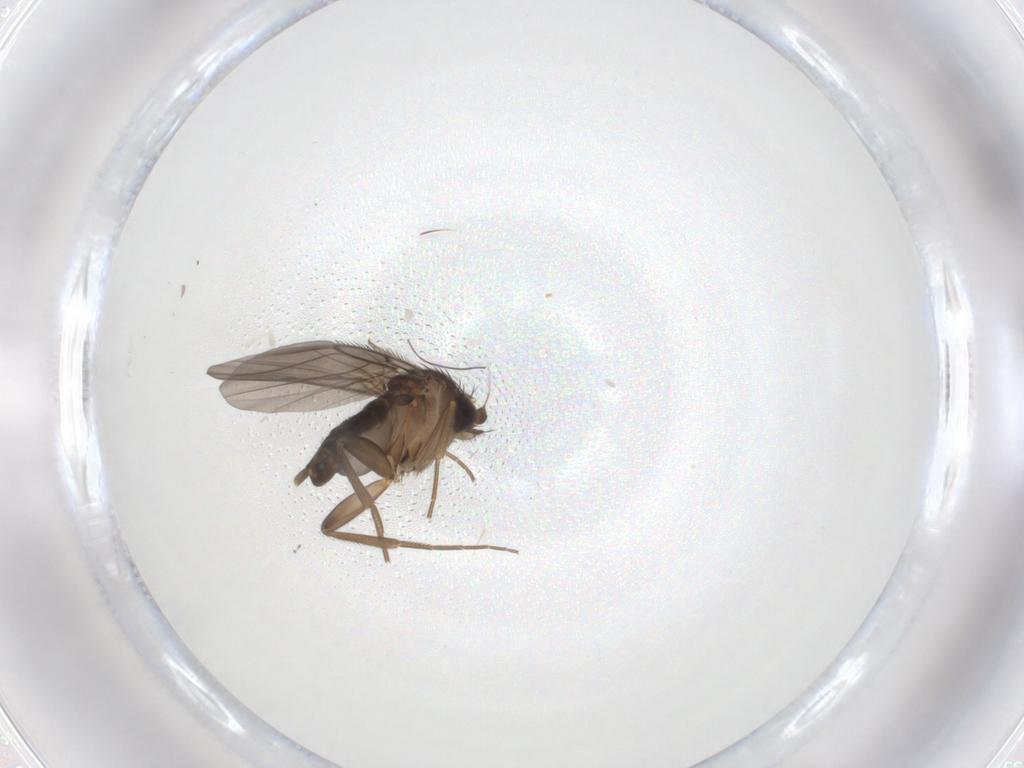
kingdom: Animalia
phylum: Arthropoda
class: Insecta
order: Diptera
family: Phoridae
